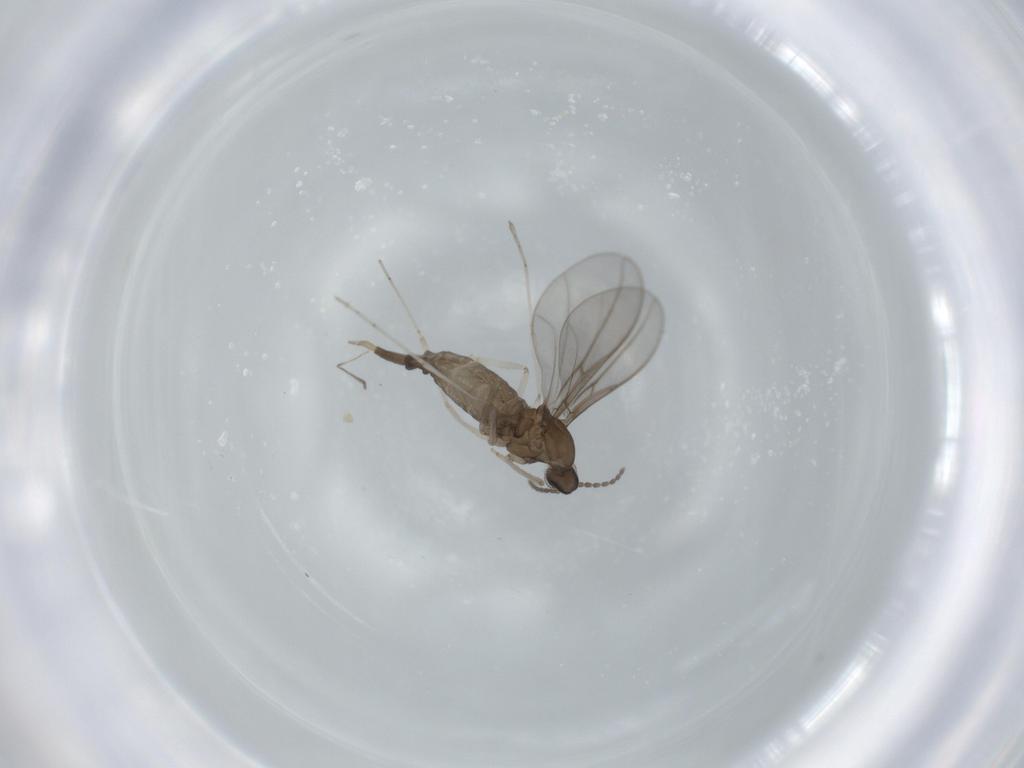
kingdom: Animalia
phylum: Arthropoda
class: Insecta
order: Diptera
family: Cecidomyiidae
